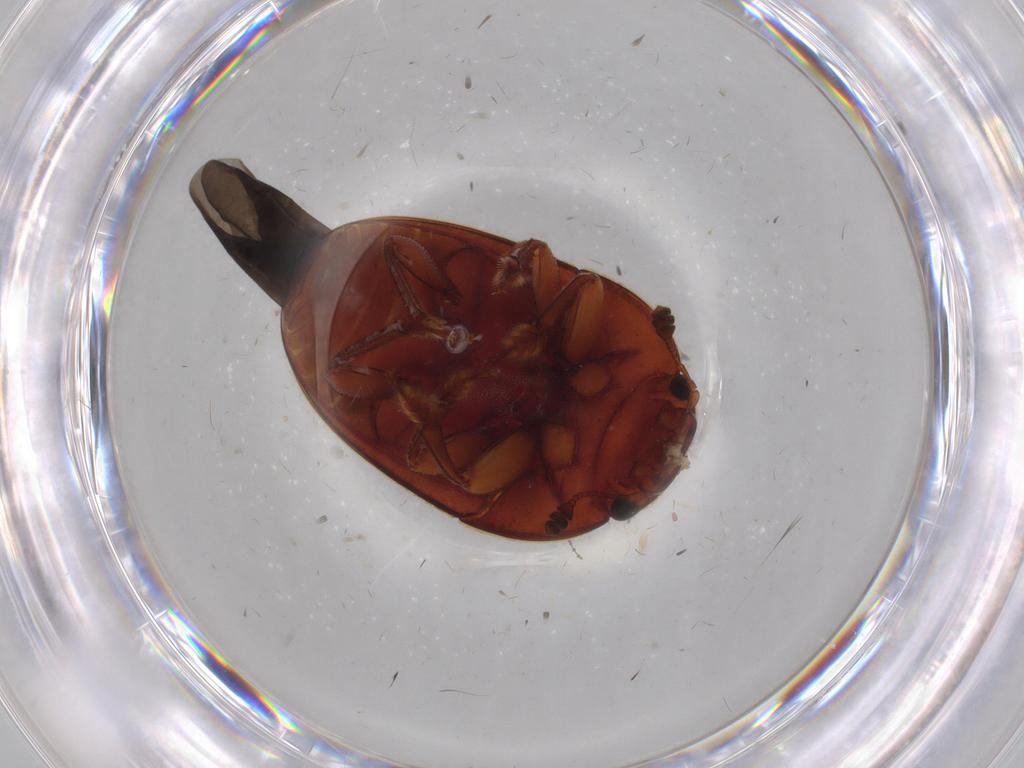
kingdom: Animalia
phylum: Arthropoda
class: Insecta
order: Coleoptera
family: Nitidulidae
